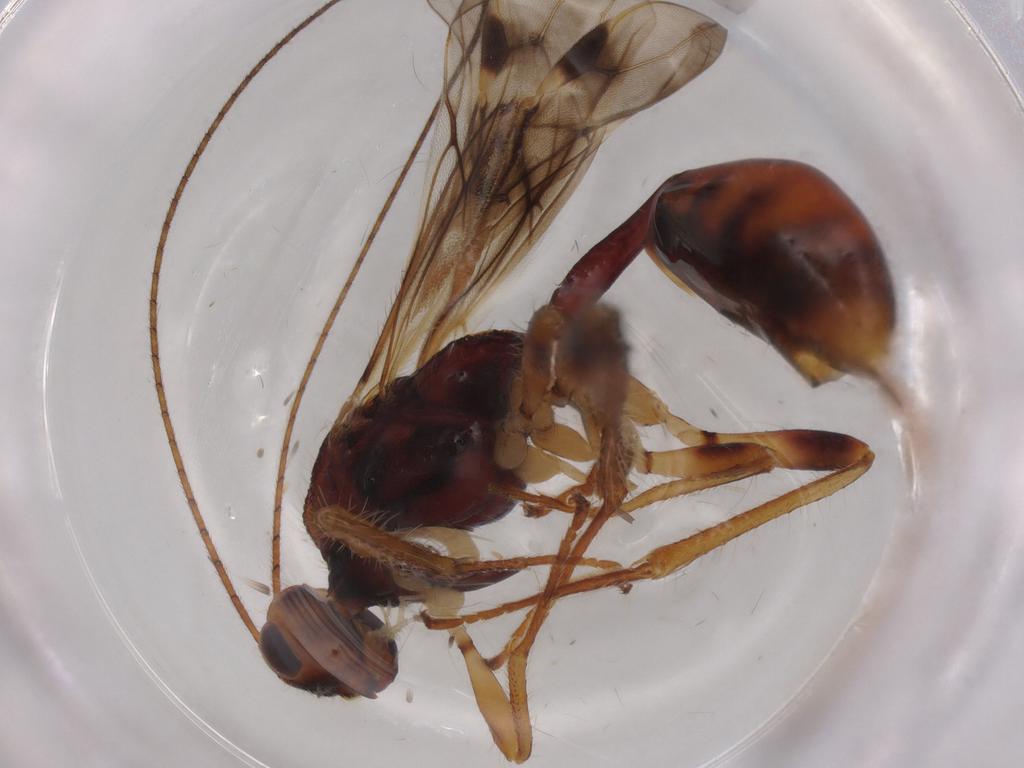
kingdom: Animalia
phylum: Arthropoda
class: Insecta
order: Hymenoptera
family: Braconidae
